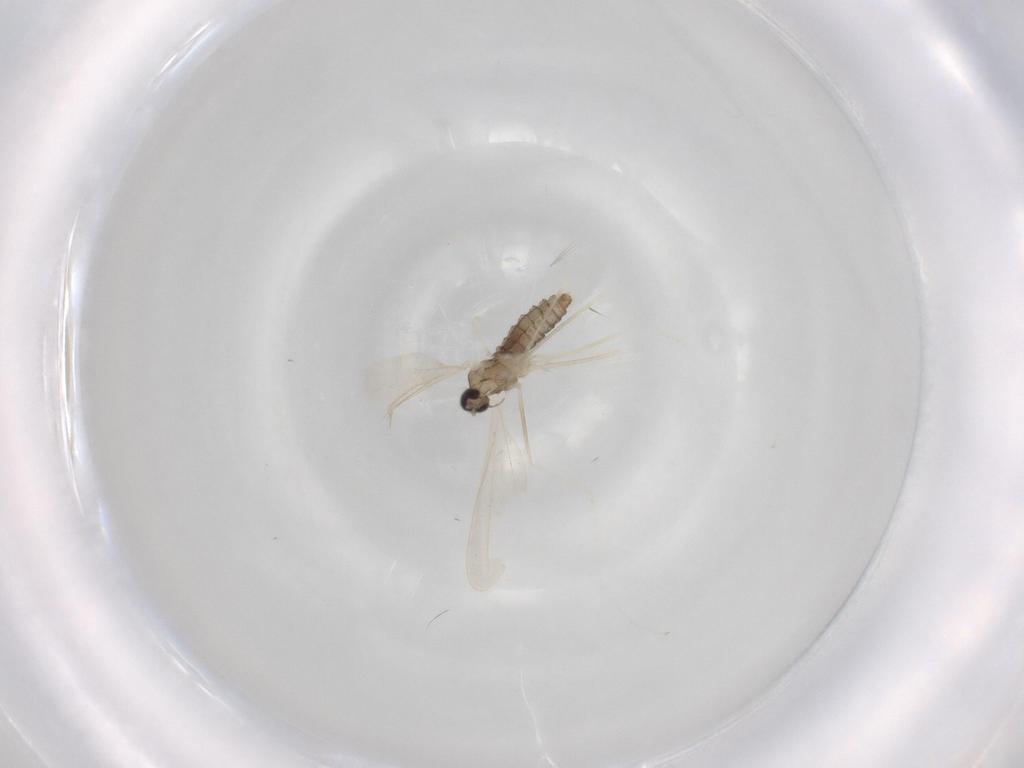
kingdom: Animalia
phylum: Arthropoda
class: Insecta
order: Diptera
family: Cecidomyiidae
